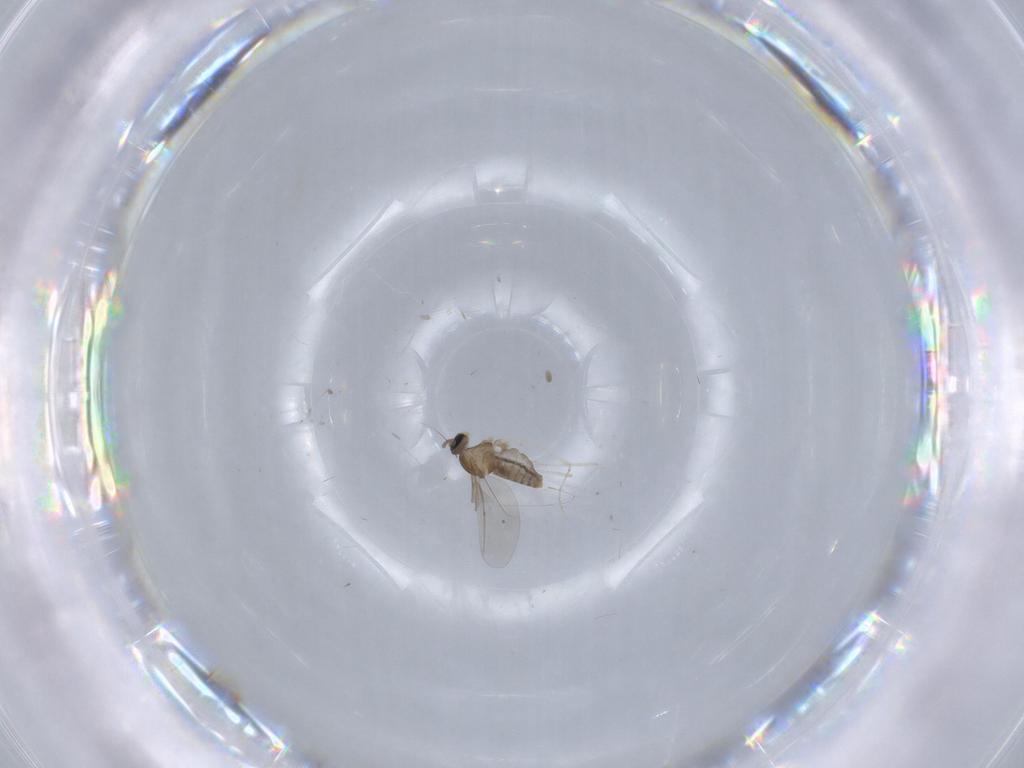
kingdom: Animalia
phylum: Arthropoda
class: Insecta
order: Diptera
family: Cecidomyiidae
